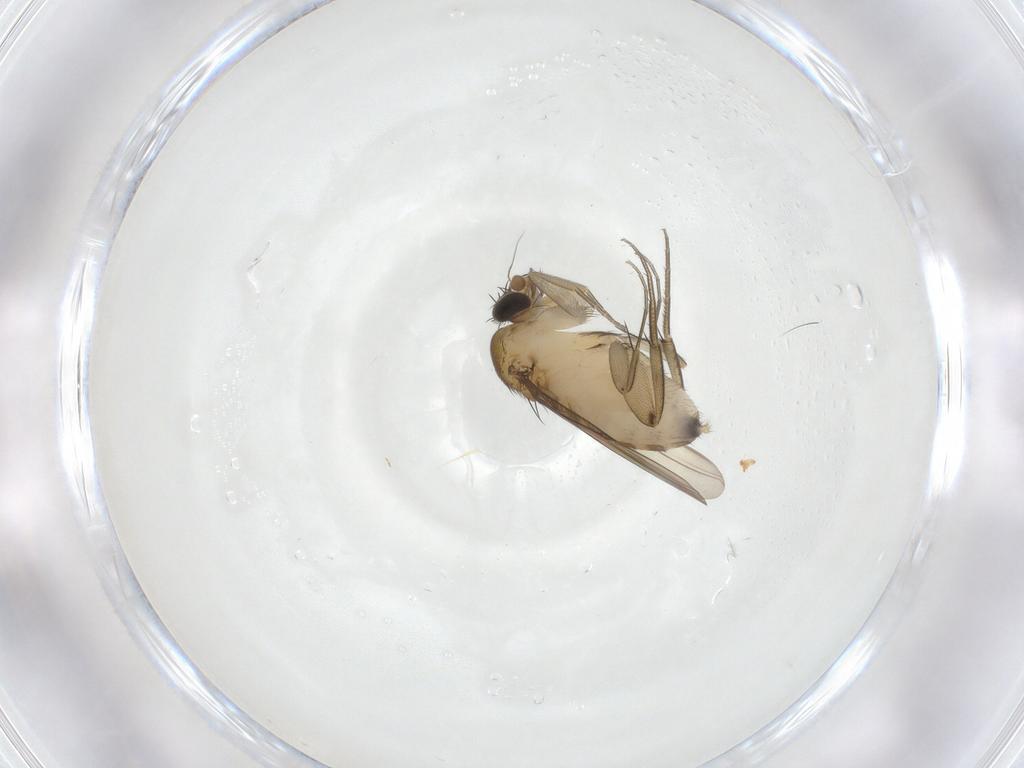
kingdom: Animalia
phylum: Arthropoda
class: Insecta
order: Diptera
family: Phoridae
